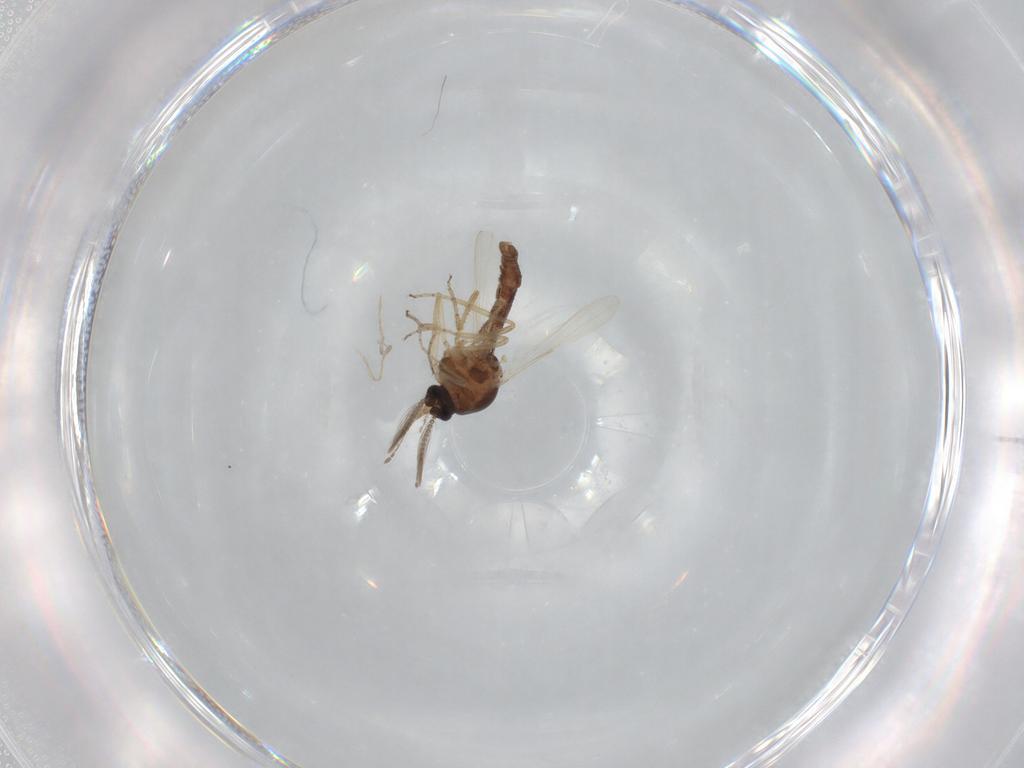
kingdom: Animalia
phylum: Arthropoda
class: Insecta
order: Diptera
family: Ceratopogonidae
